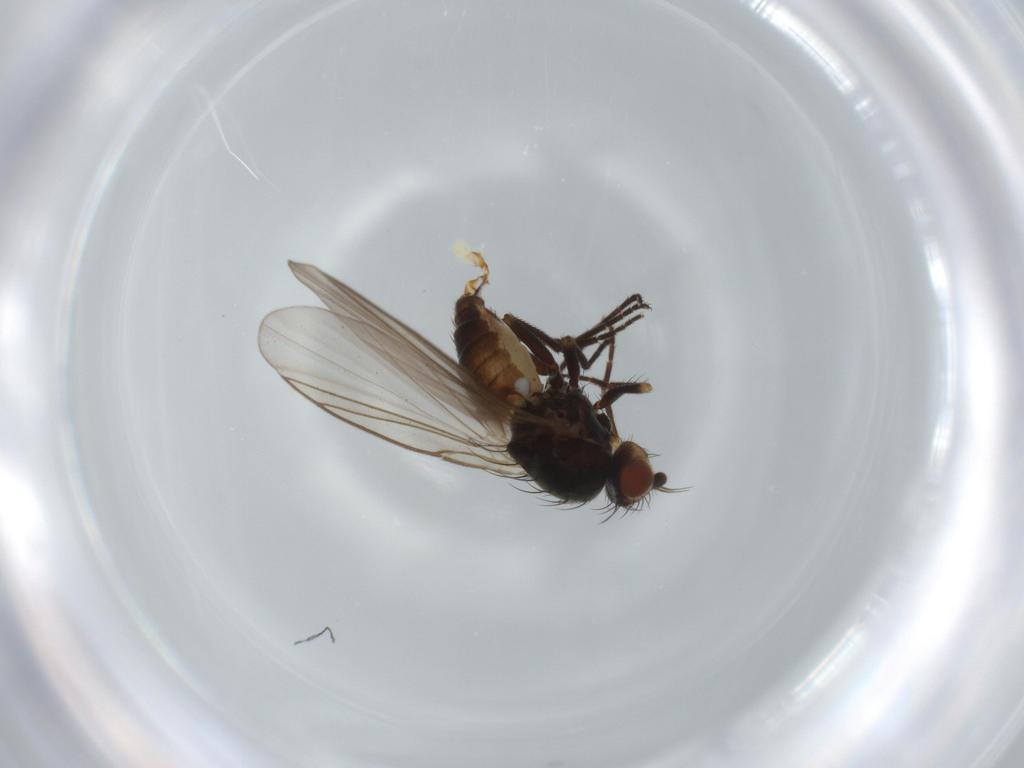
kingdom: Animalia
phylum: Arthropoda
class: Insecta
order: Diptera
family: Agromyzidae
